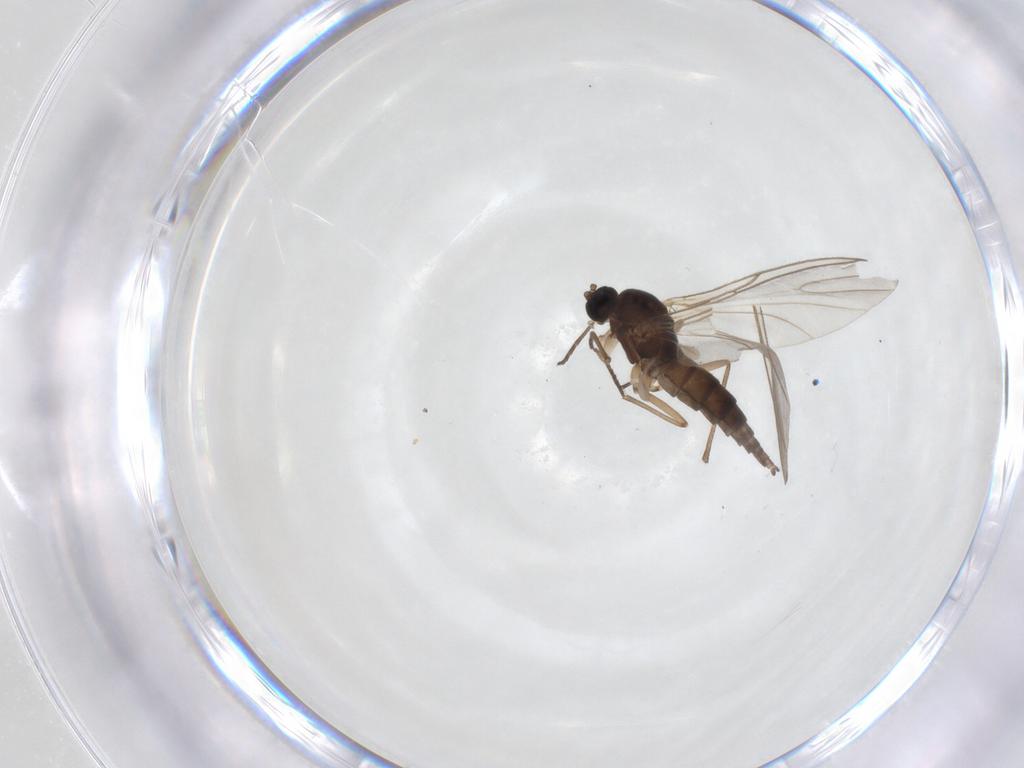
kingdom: Animalia
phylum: Arthropoda
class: Insecta
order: Diptera
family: Sciaridae
